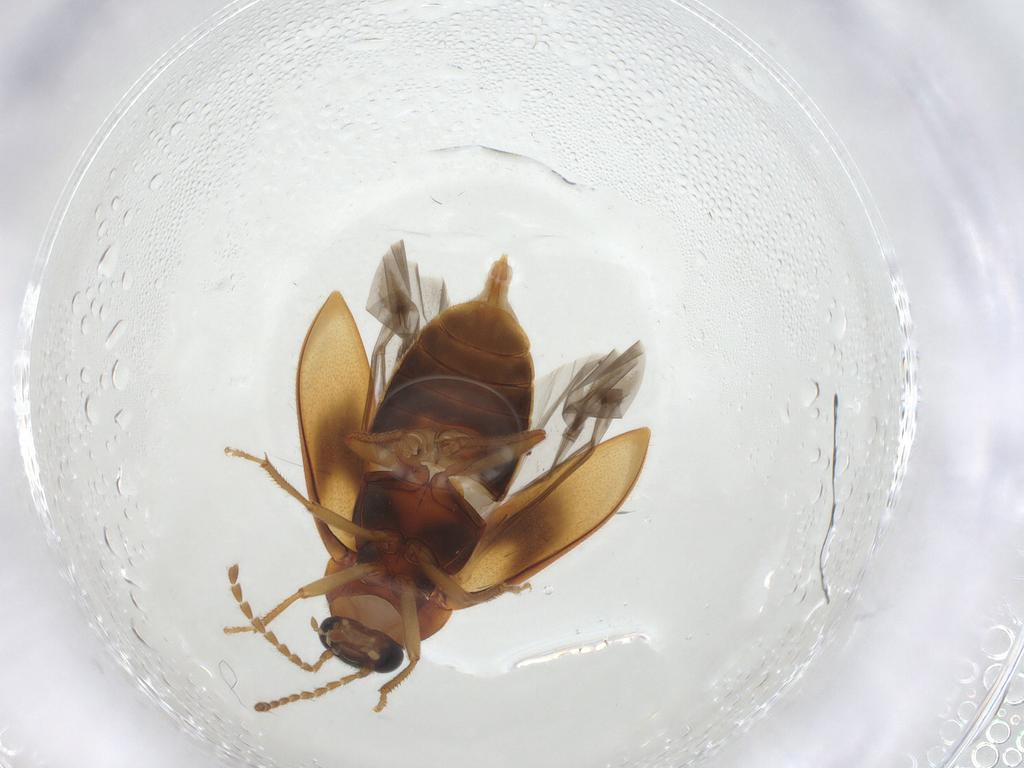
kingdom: Animalia
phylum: Arthropoda
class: Insecta
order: Coleoptera
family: Ptilodactylidae
